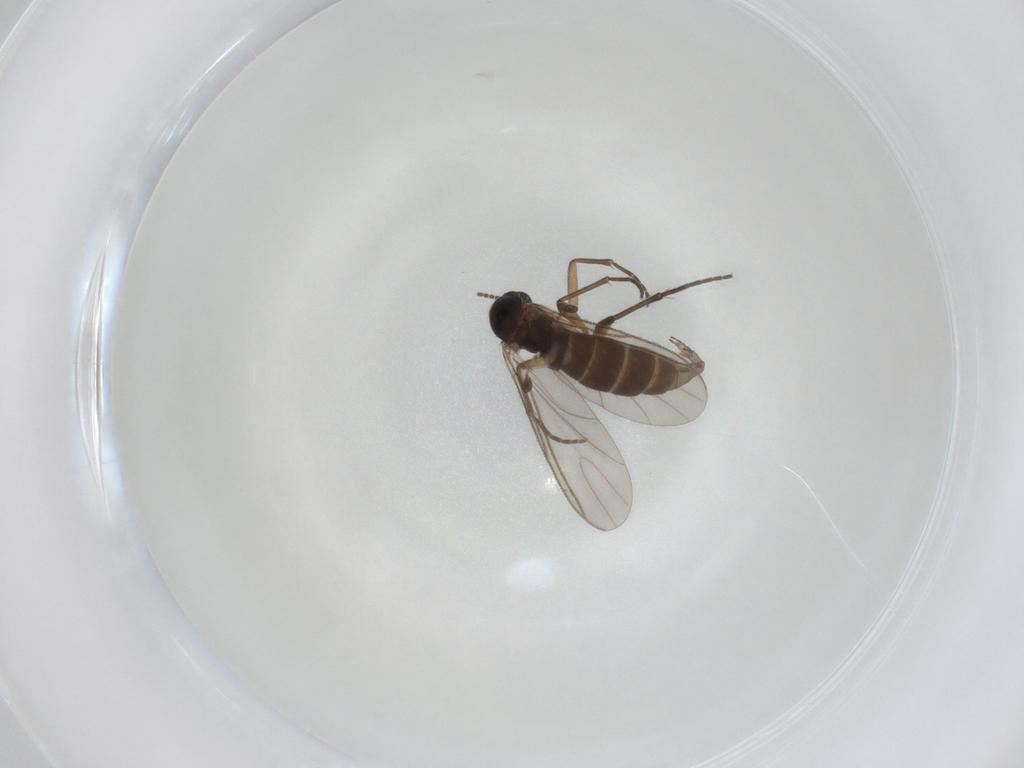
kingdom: Animalia
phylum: Arthropoda
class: Insecta
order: Diptera
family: Sciaridae
